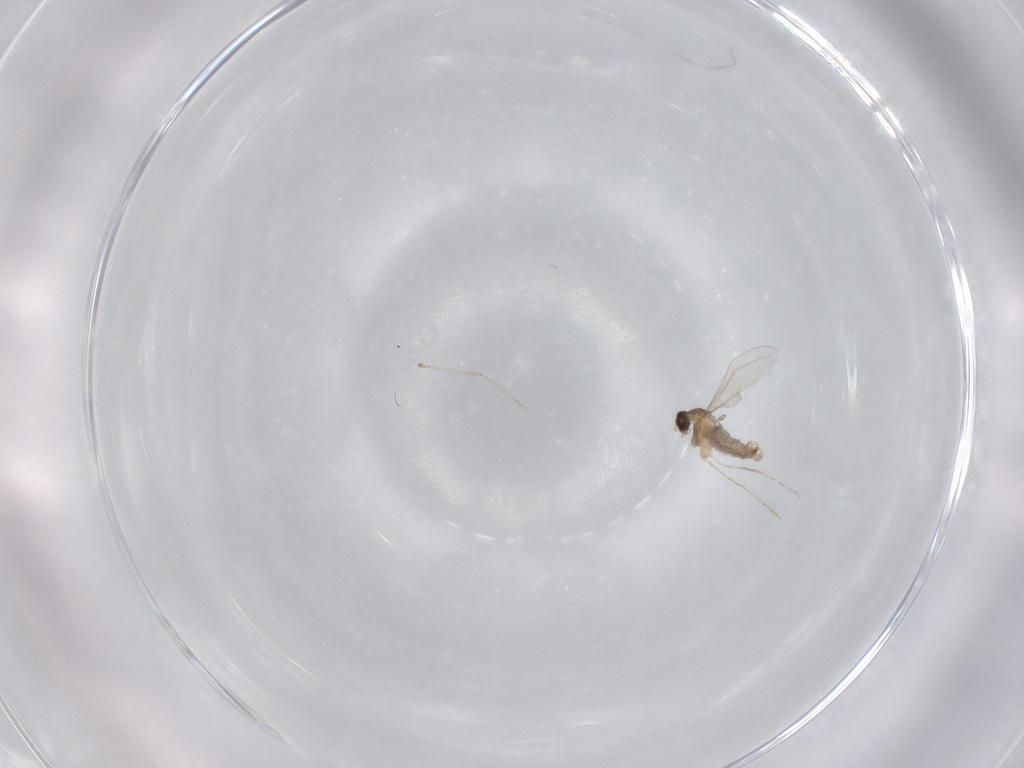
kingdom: Animalia
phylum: Arthropoda
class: Insecta
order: Diptera
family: Cecidomyiidae
